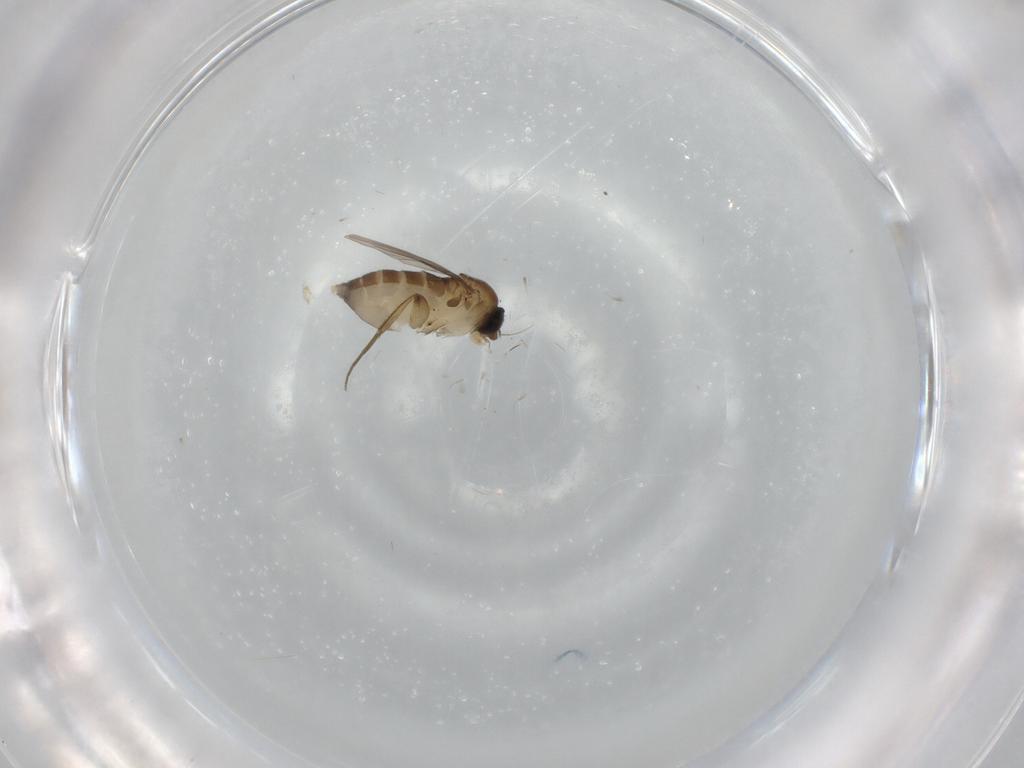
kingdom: Animalia
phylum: Arthropoda
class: Insecta
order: Diptera
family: Phoridae
